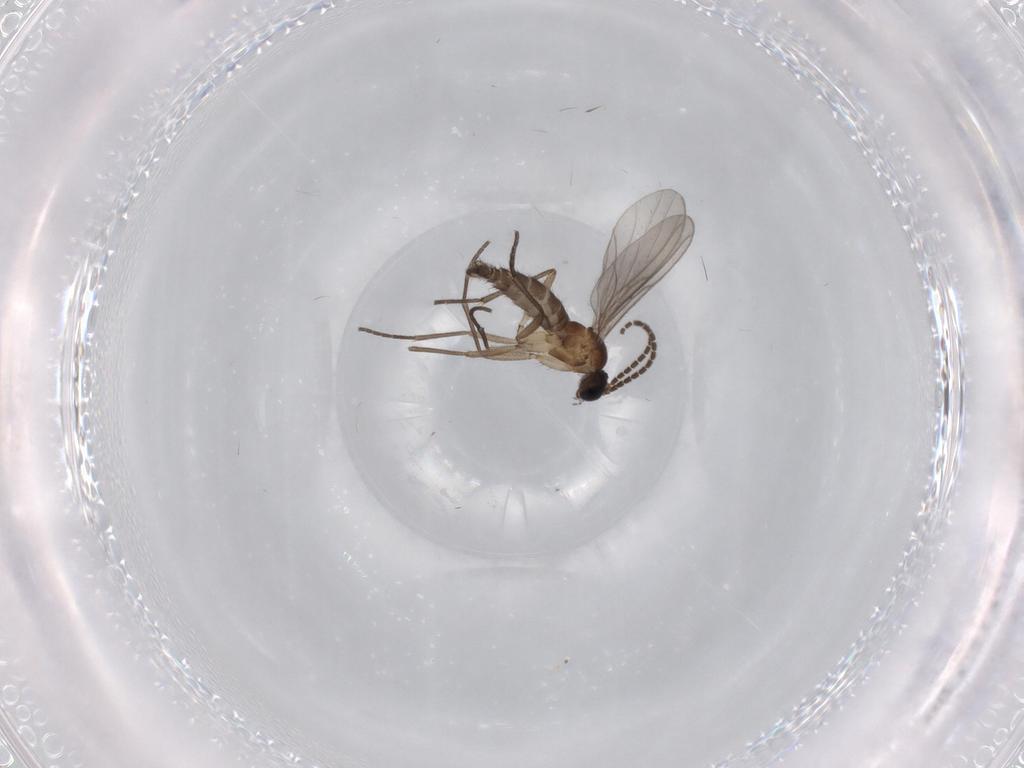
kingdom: Animalia
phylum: Arthropoda
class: Insecta
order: Diptera
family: Sciaridae
